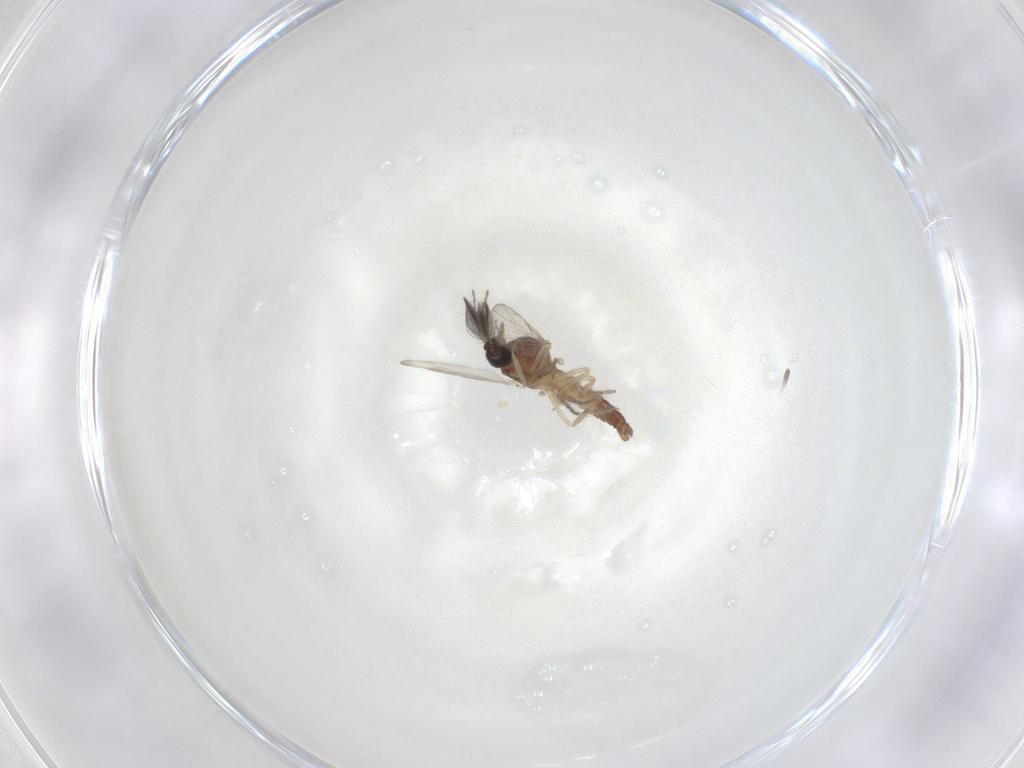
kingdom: Animalia
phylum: Arthropoda
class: Insecta
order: Diptera
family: Ceratopogonidae
